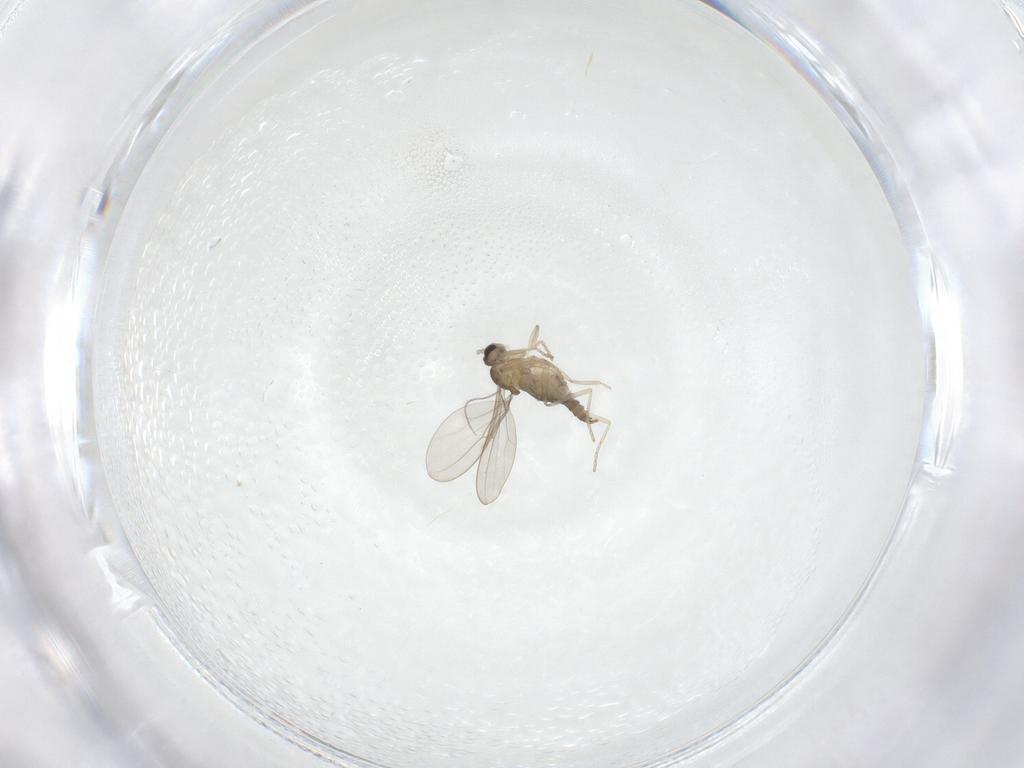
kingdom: Animalia
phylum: Arthropoda
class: Insecta
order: Diptera
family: Cecidomyiidae
